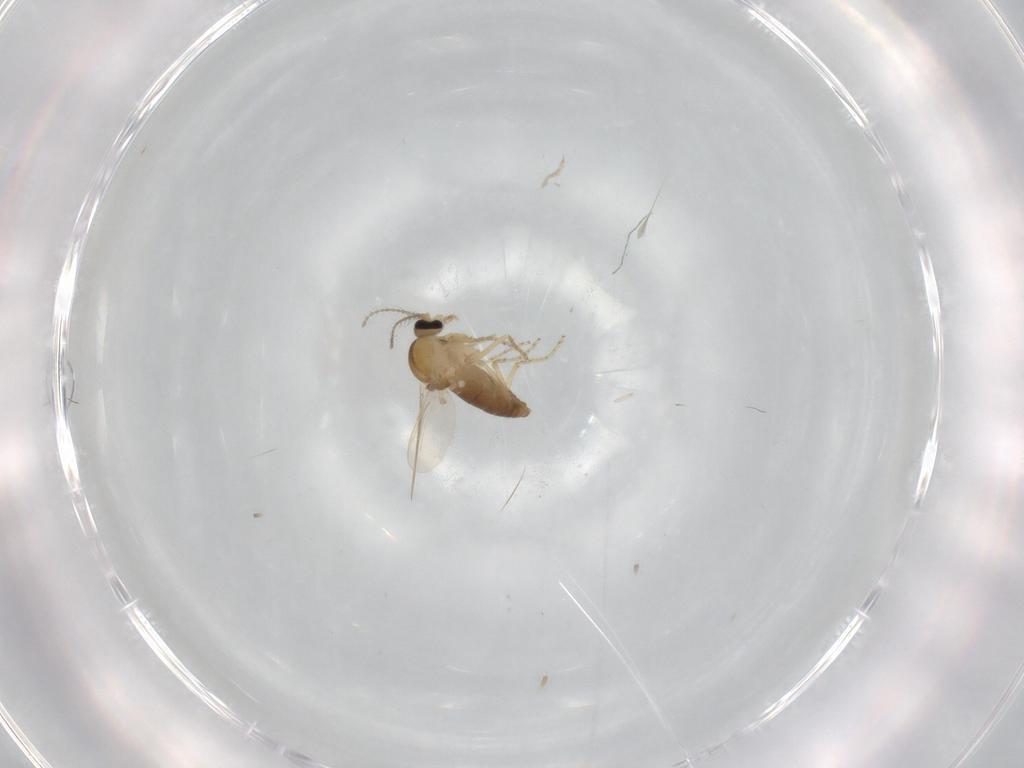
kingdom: Animalia
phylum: Arthropoda
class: Insecta
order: Diptera
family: Ceratopogonidae
